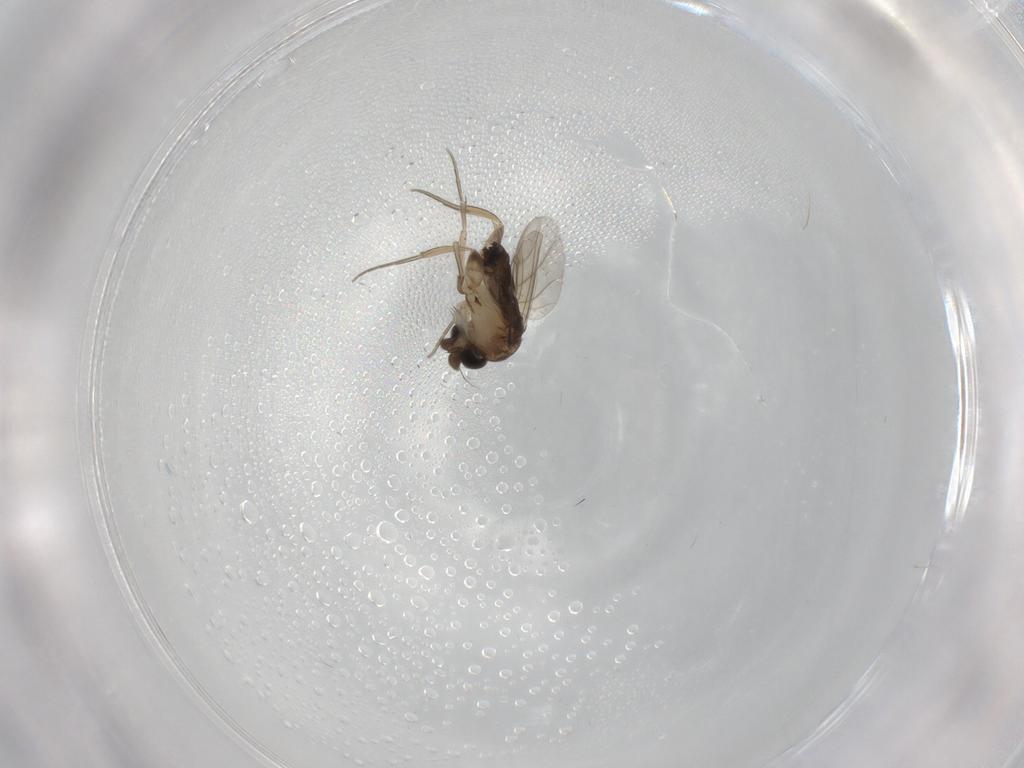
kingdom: Animalia
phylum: Arthropoda
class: Insecta
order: Diptera
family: Phoridae
